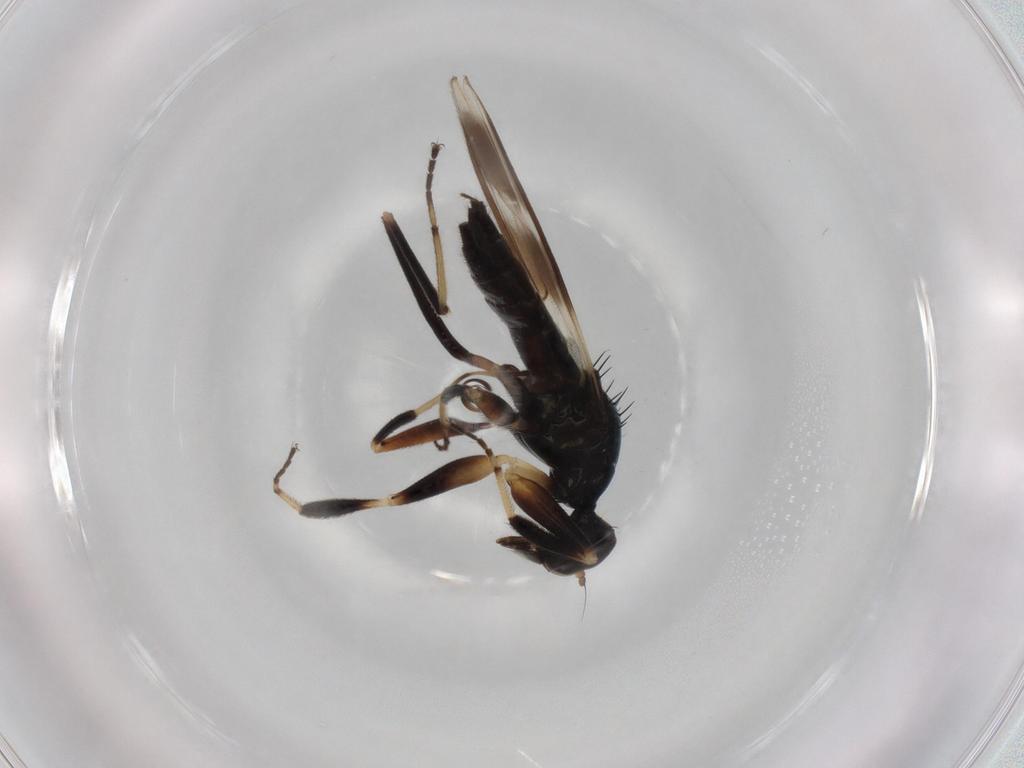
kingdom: Animalia
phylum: Arthropoda
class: Insecta
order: Diptera
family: Hybotidae
